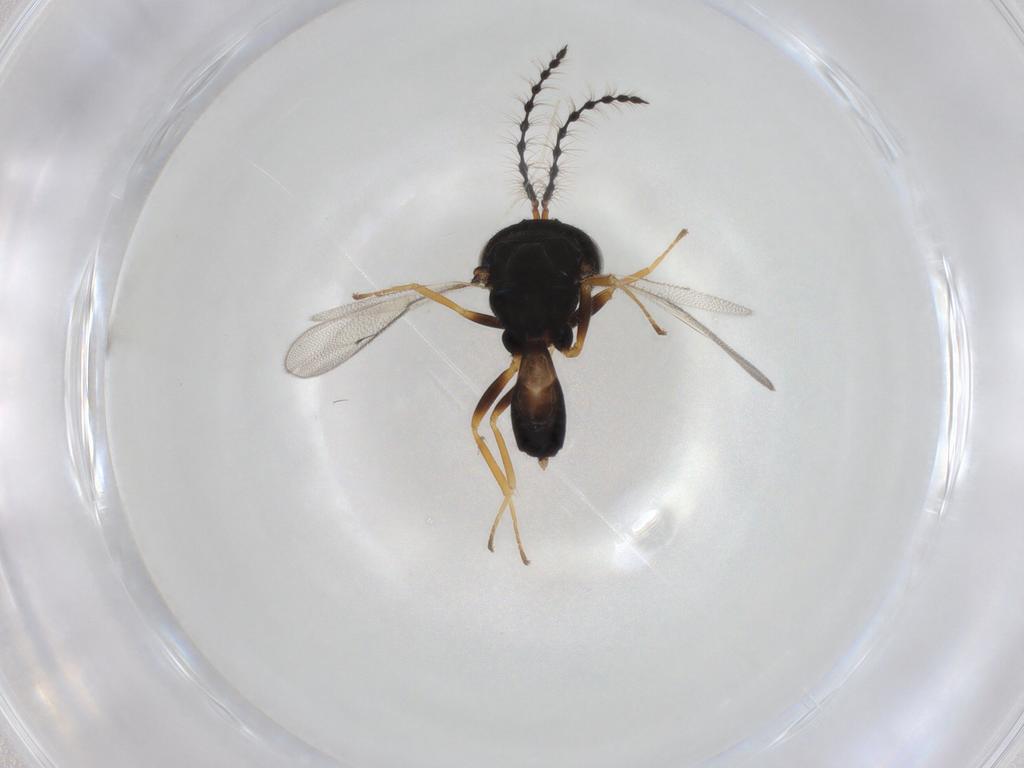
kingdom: Animalia
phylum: Arthropoda
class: Insecta
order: Hymenoptera
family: Pteromalidae
